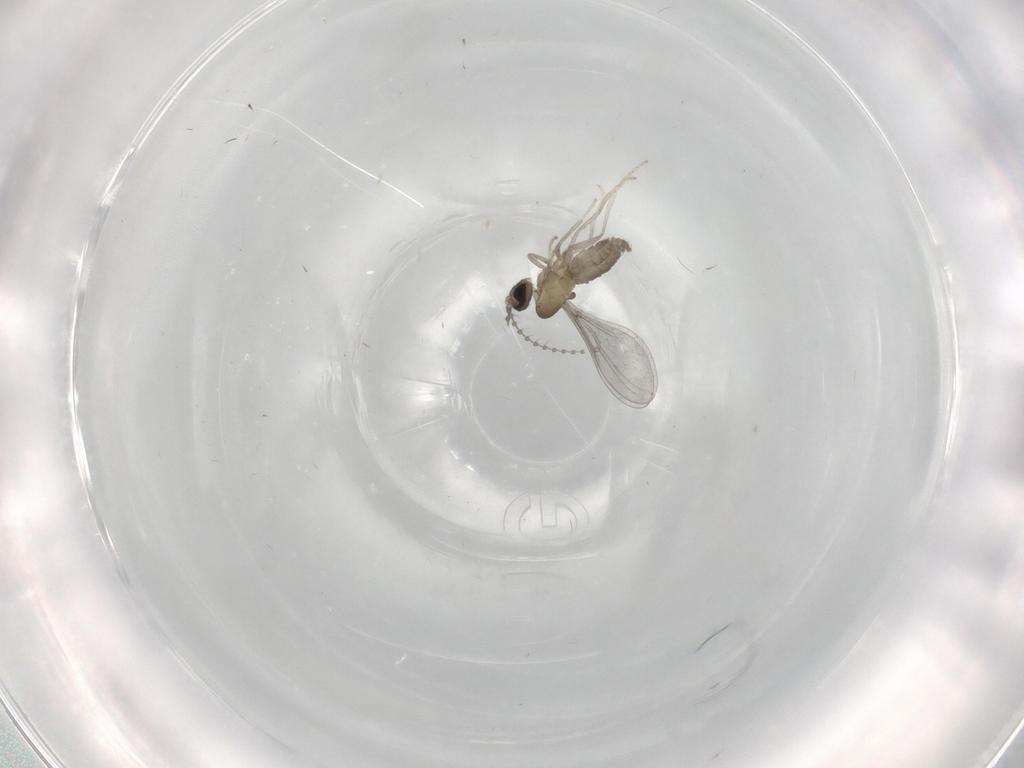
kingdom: Animalia
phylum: Arthropoda
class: Insecta
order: Diptera
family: Cecidomyiidae
